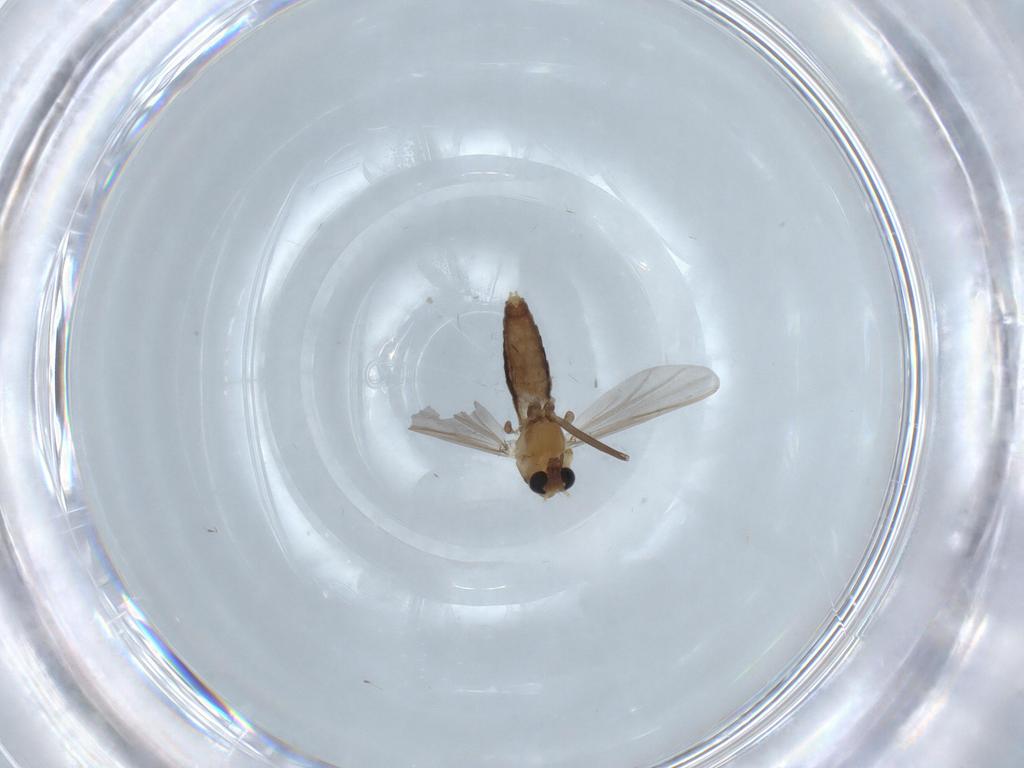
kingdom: Animalia
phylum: Arthropoda
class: Insecta
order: Diptera
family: Chironomidae
